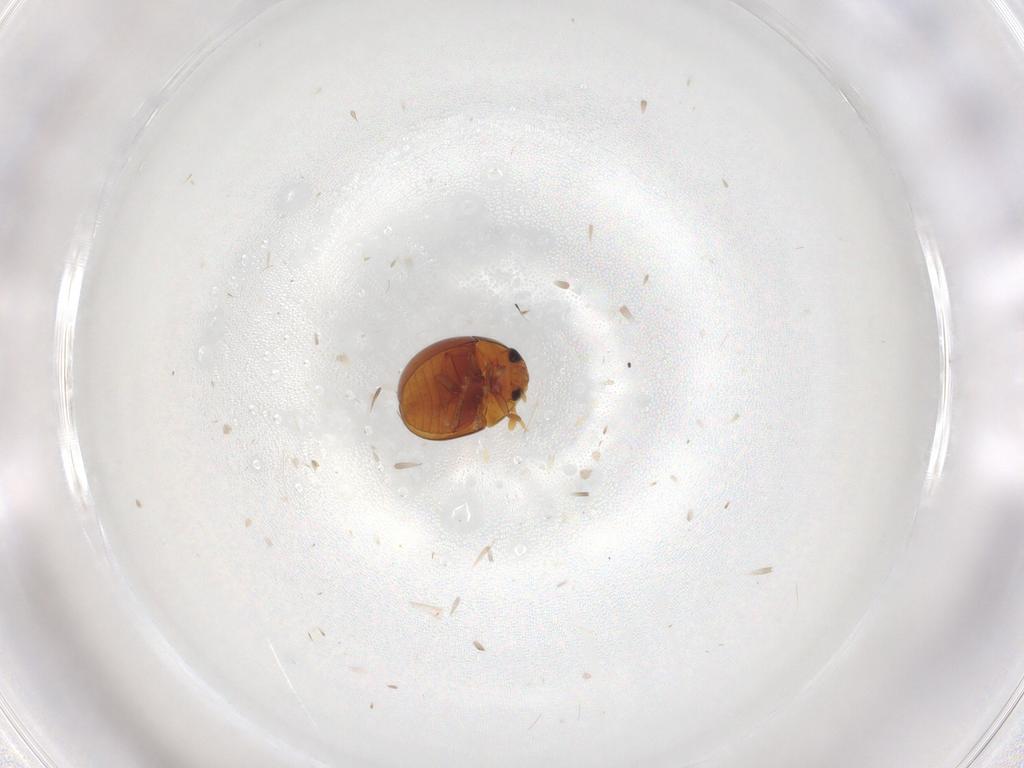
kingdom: Animalia
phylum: Arthropoda
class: Insecta
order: Coleoptera
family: Phalacridae
